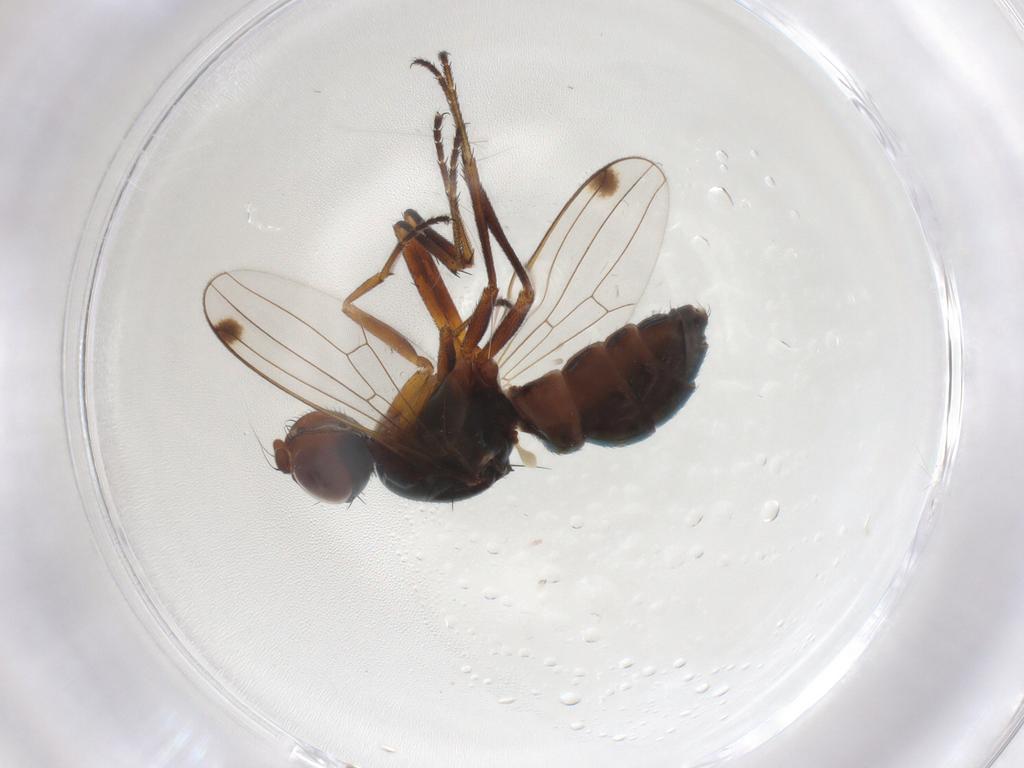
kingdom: Animalia
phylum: Arthropoda
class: Insecta
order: Diptera
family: Sepsidae
